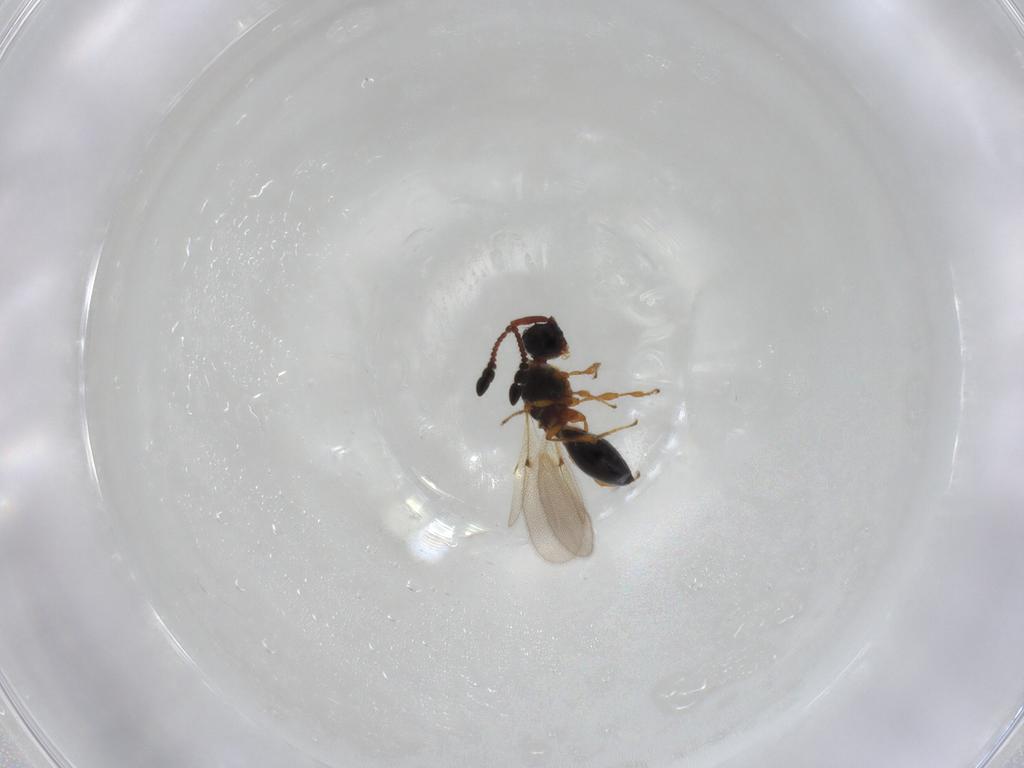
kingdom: Animalia
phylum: Arthropoda
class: Insecta
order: Hymenoptera
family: Diapriidae
